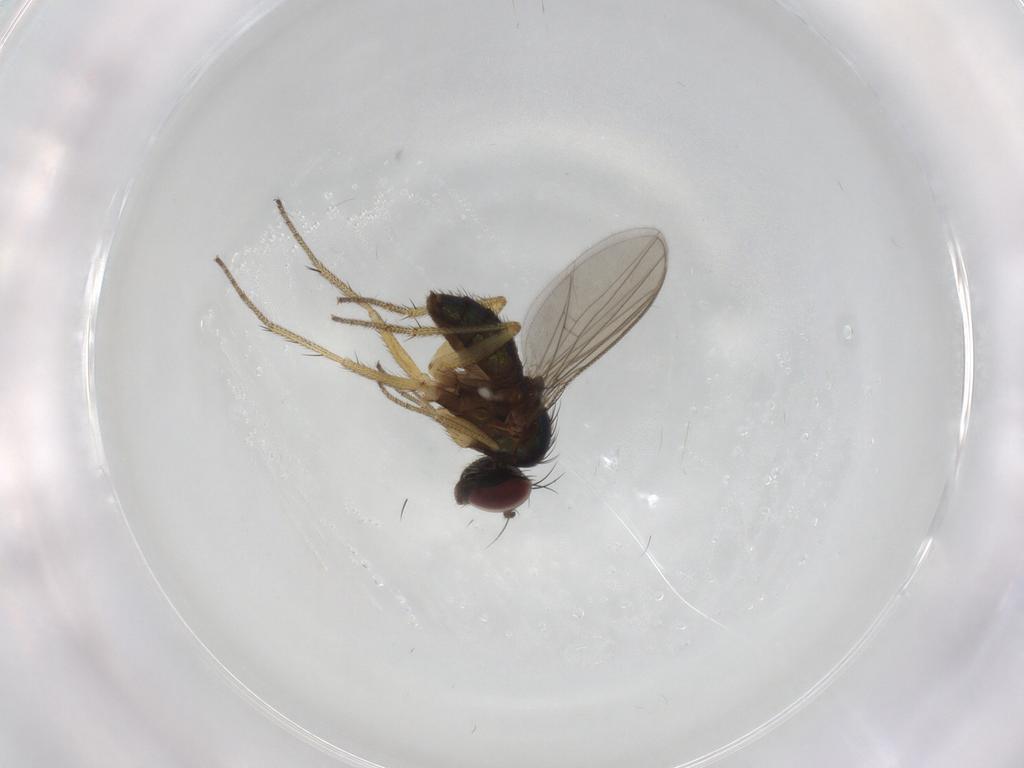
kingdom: Animalia
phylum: Arthropoda
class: Insecta
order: Diptera
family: Dolichopodidae
